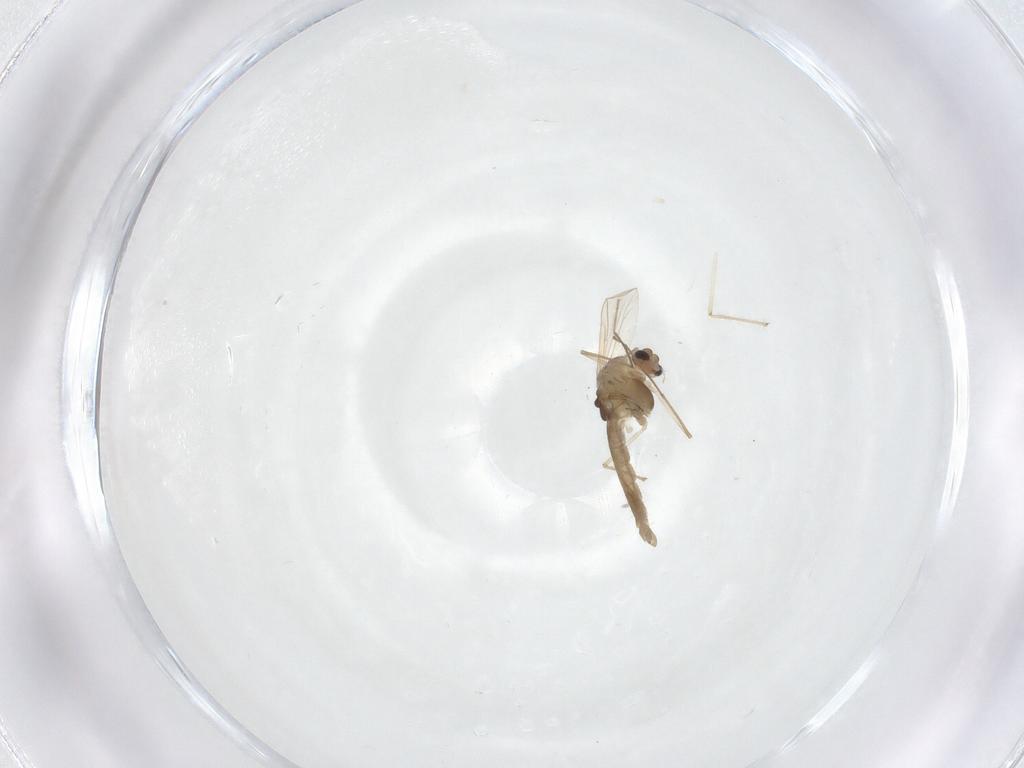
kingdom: Animalia
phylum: Arthropoda
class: Insecta
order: Diptera
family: Chironomidae
